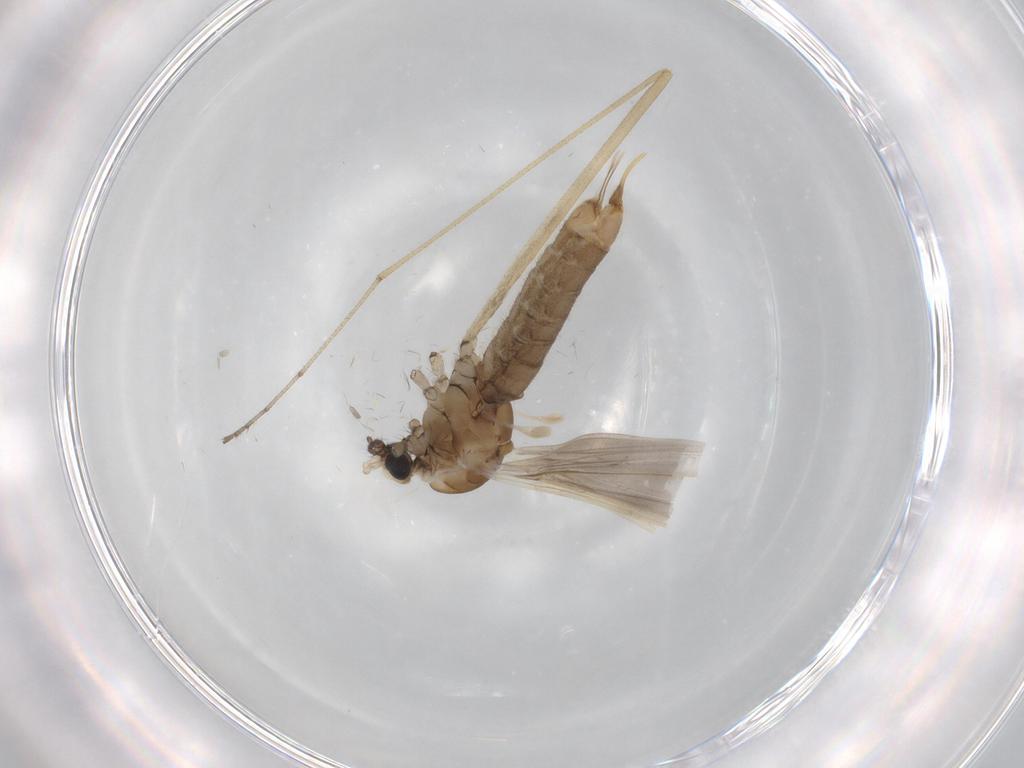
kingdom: Animalia
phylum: Arthropoda
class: Insecta
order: Diptera
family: Limoniidae
